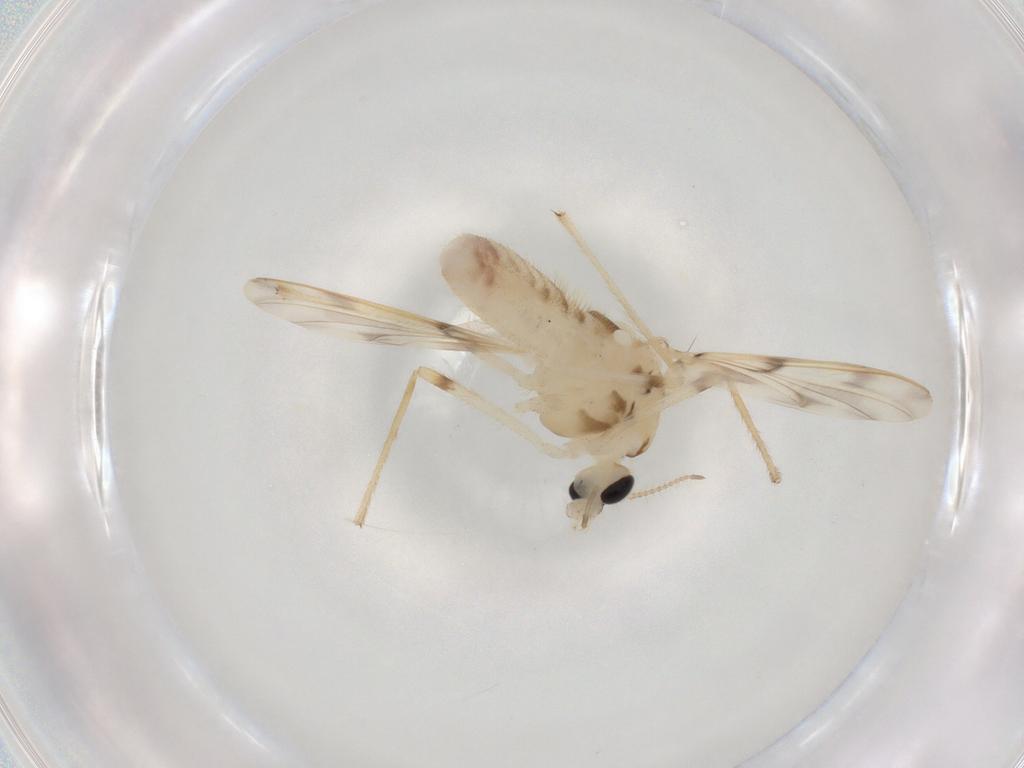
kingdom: Animalia
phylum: Arthropoda
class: Insecta
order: Diptera
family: Chironomidae
